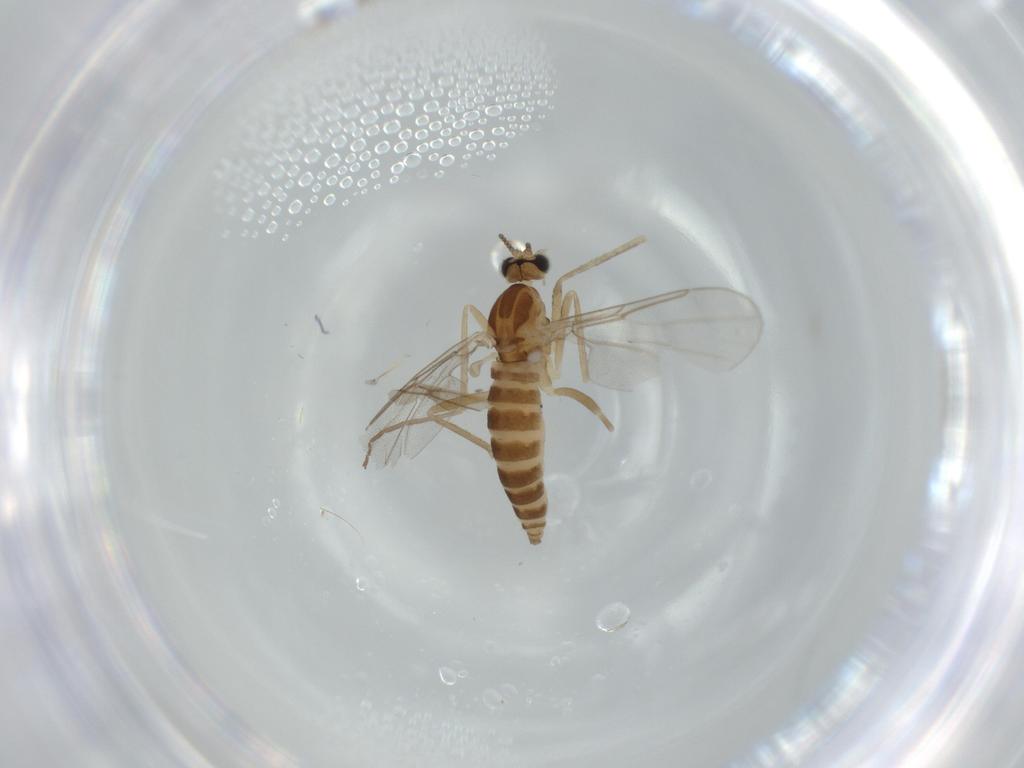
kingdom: Animalia
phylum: Arthropoda
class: Insecta
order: Diptera
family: Cecidomyiidae
